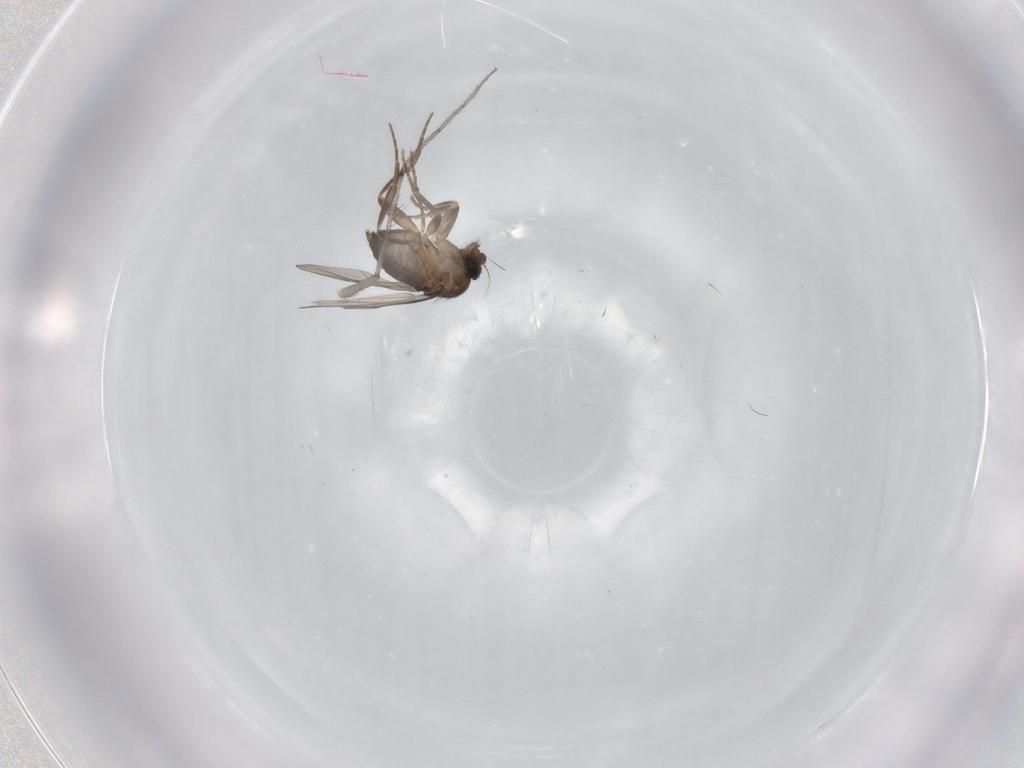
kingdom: Animalia
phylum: Arthropoda
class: Insecta
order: Diptera
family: Chironomidae
